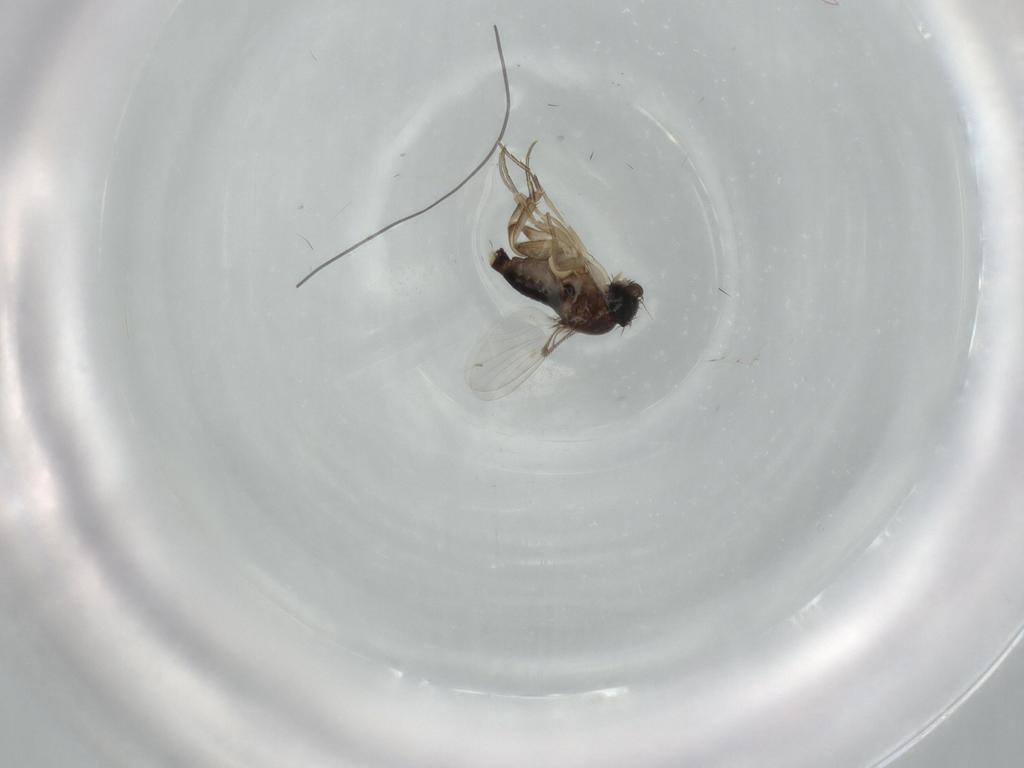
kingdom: Animalia
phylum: Arthropoda
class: Insecta
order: Diptera
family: Phoridae
